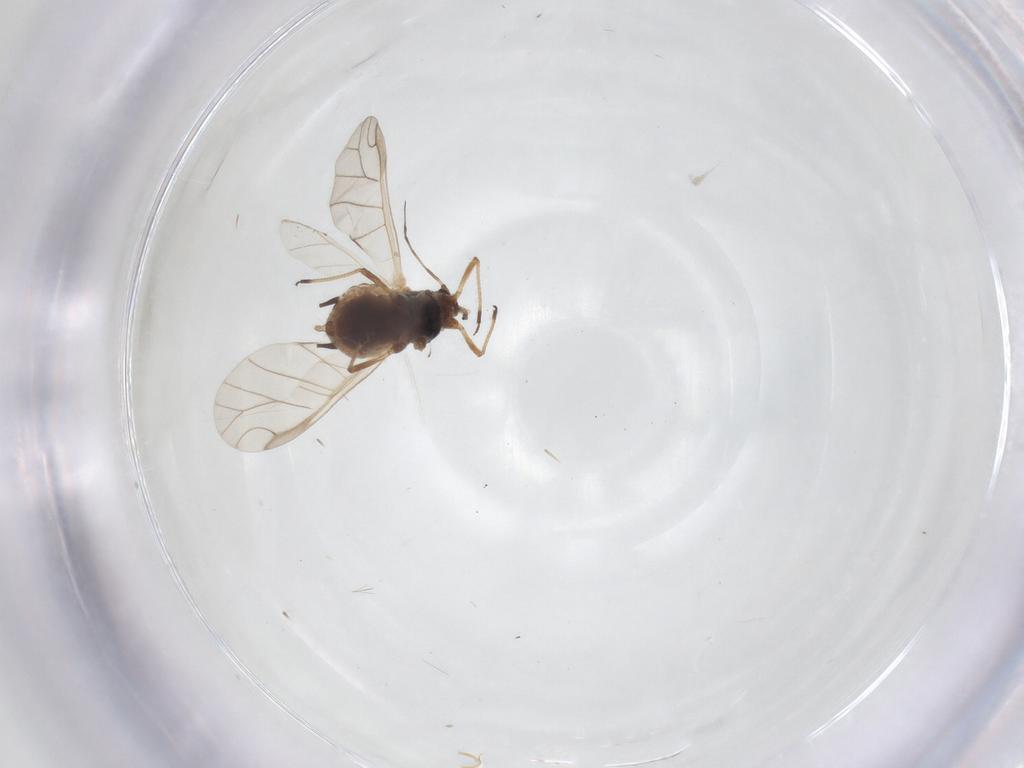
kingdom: Animalia
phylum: Arthropoda
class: Insecta
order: Hemiptera
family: Aphididae
